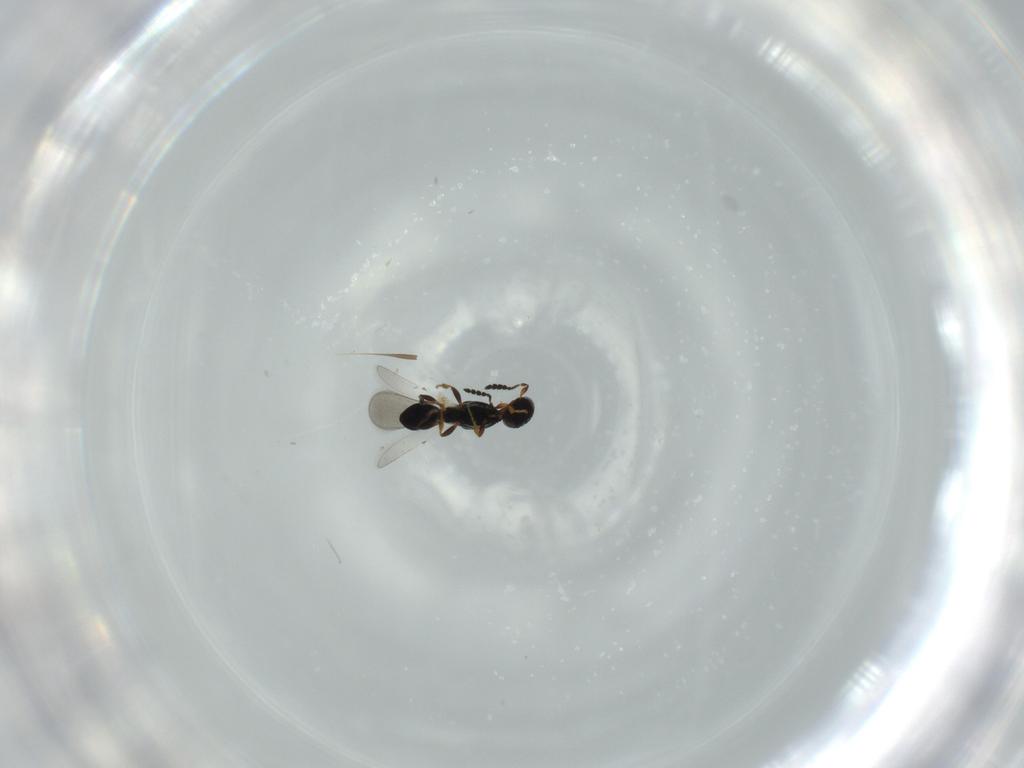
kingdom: Animalia
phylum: Arthropoda
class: Insecta
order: Hymenoptera
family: Platygastridae
